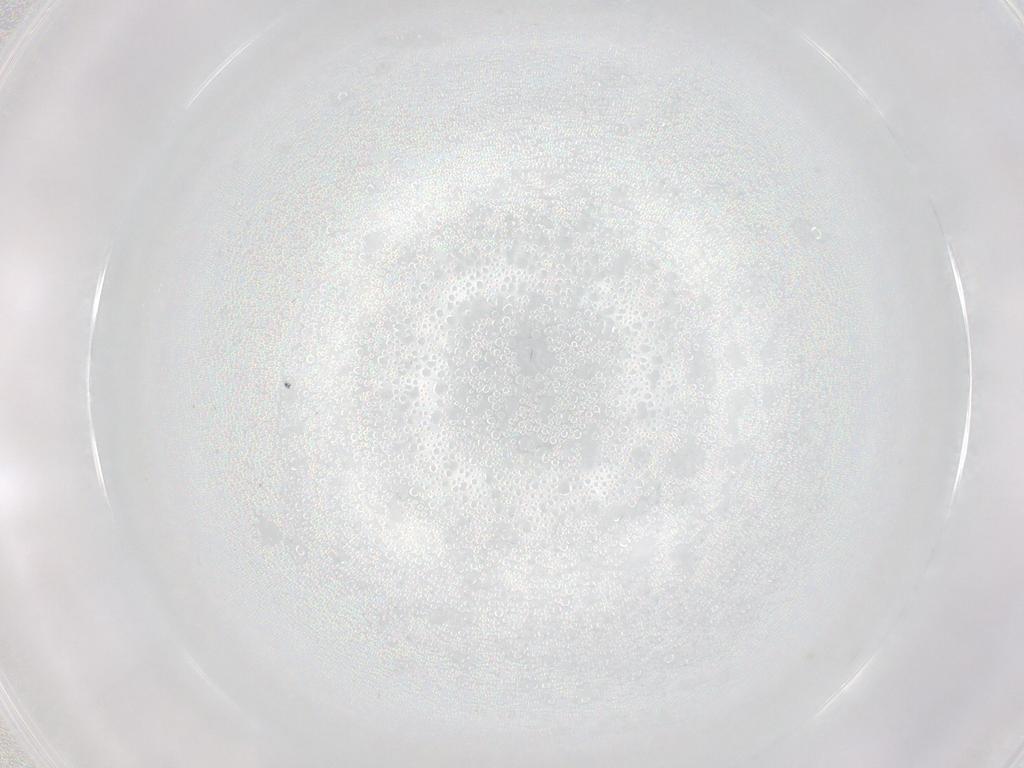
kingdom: Animalia
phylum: Arthropoda
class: Insecta
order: Diptera
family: Chironomidae
